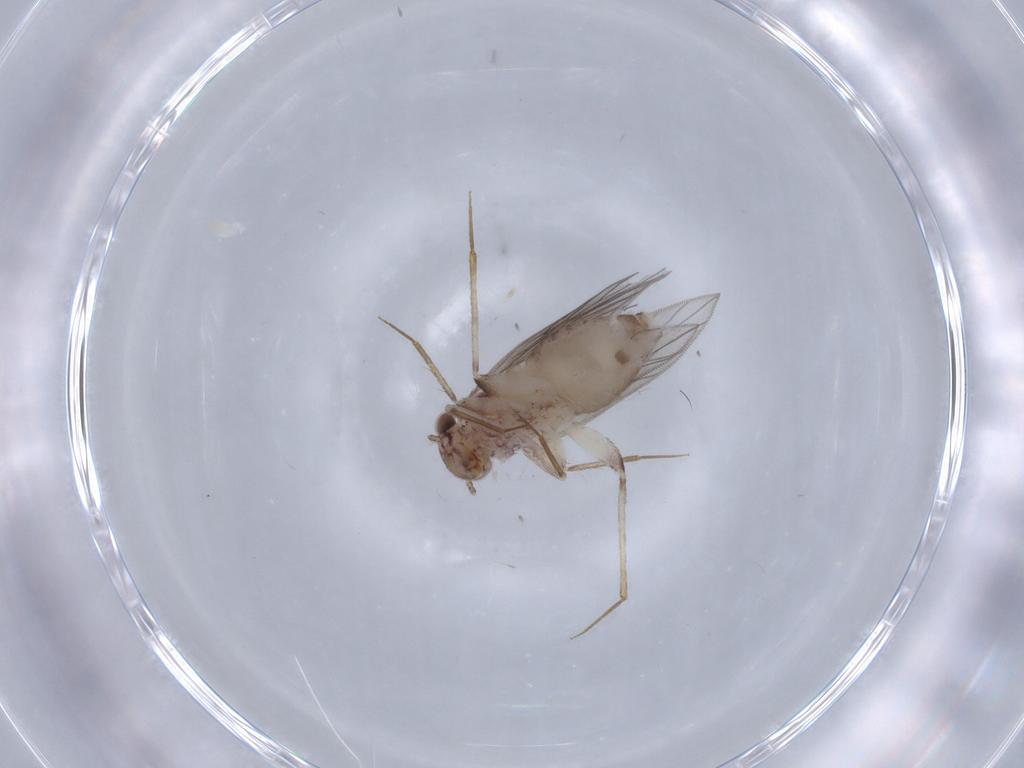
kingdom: Animalia
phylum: Arthropoda
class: Insecta
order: Psocodea
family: Lepidopsocidae
